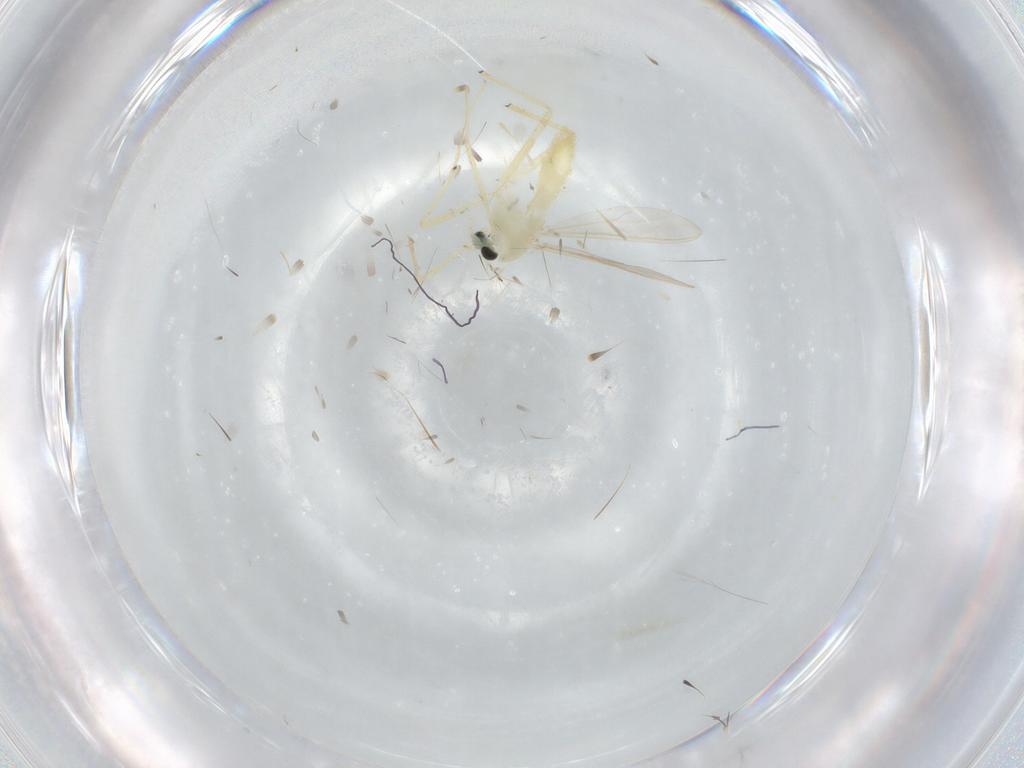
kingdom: Animalia
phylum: Arthropoda
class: Insecta
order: Diptera
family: Chironomidae
